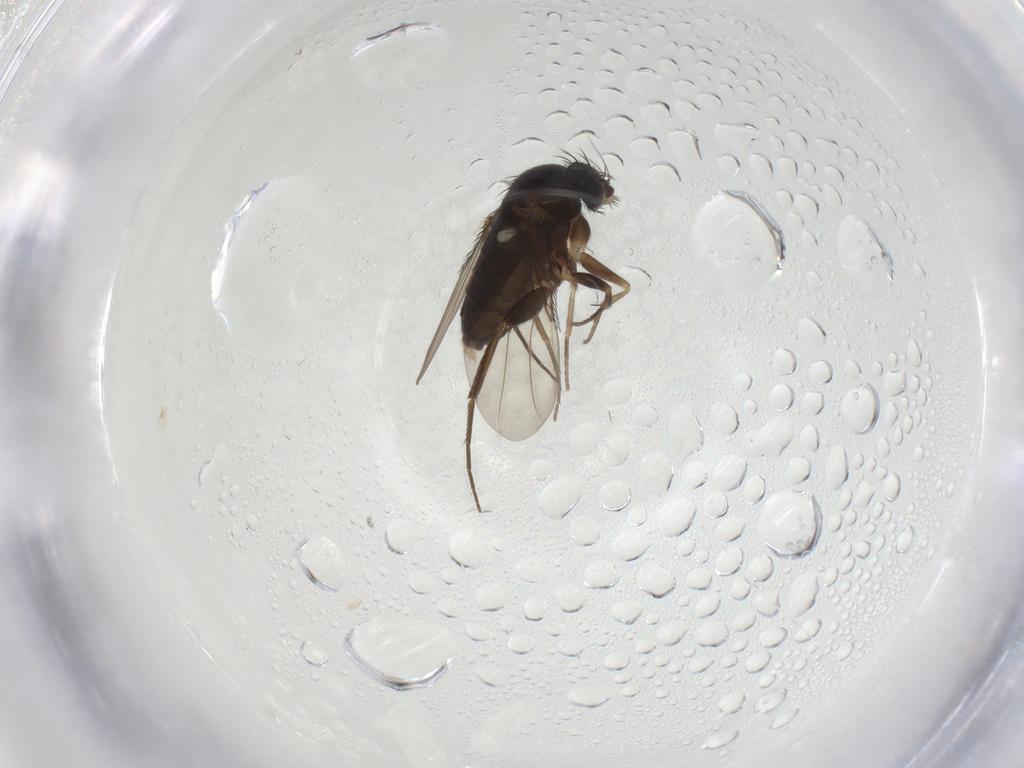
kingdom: Animalia
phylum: Arthropoda
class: Insecta
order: Diptera
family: Phoridae
